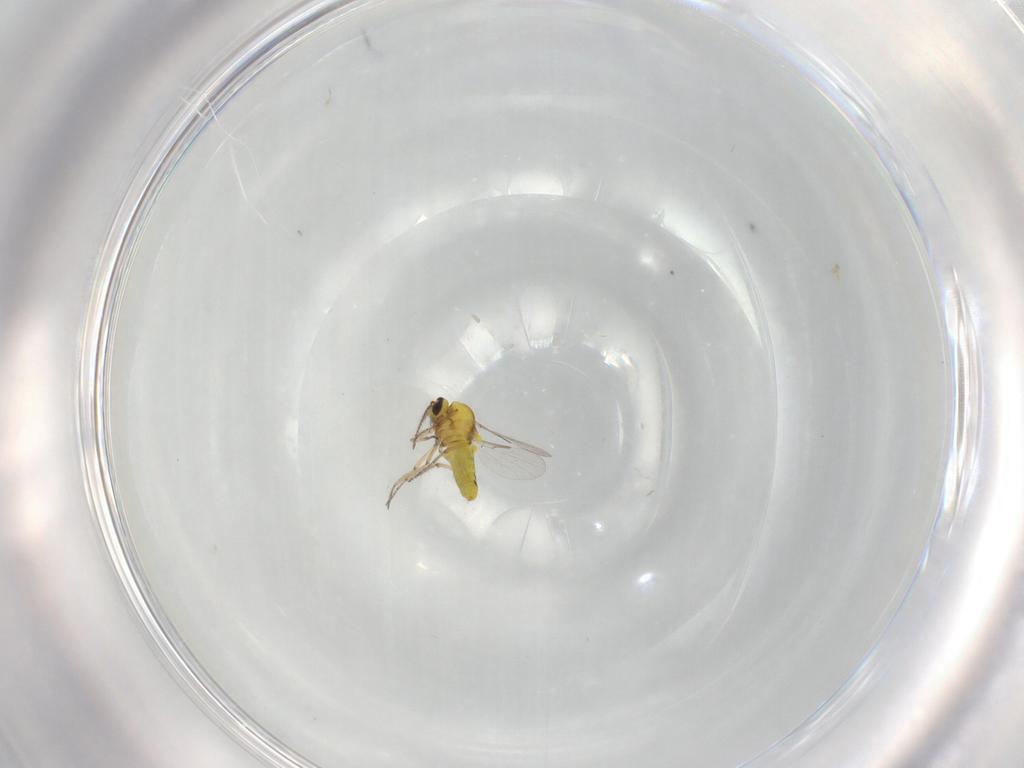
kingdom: Animalia
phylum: Arthropoda
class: Insecta
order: Diptera
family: Ceratopogonidae
